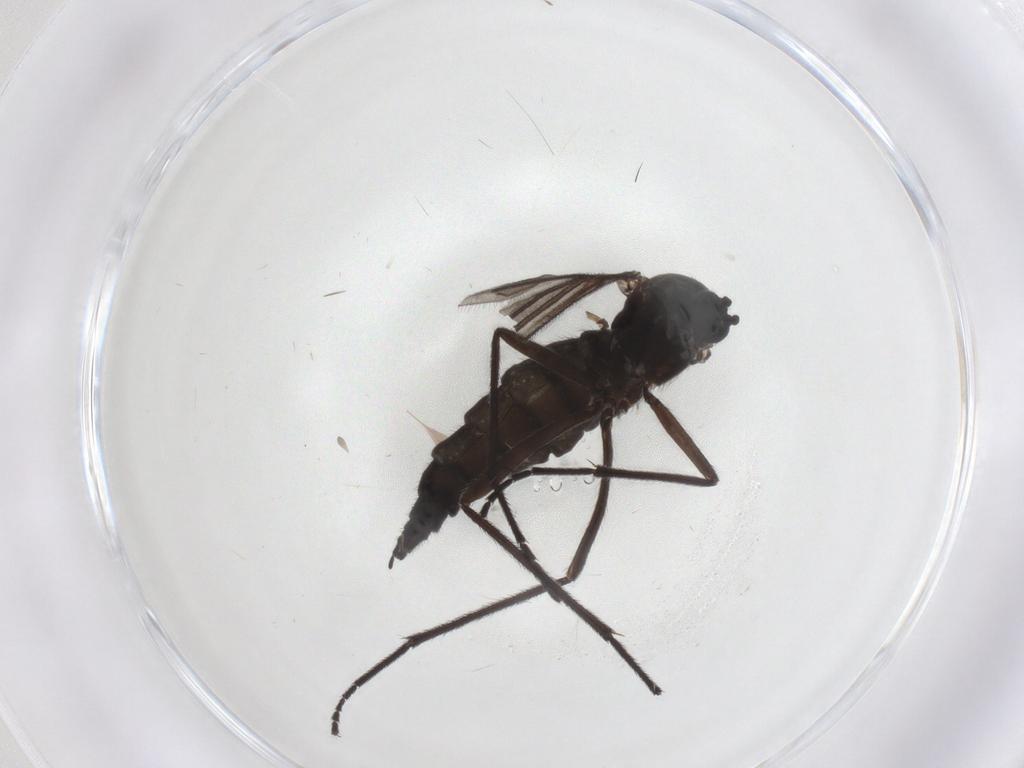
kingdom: Animalia
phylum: Arthropoda
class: Insecta
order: Diptera
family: Sciaridae
